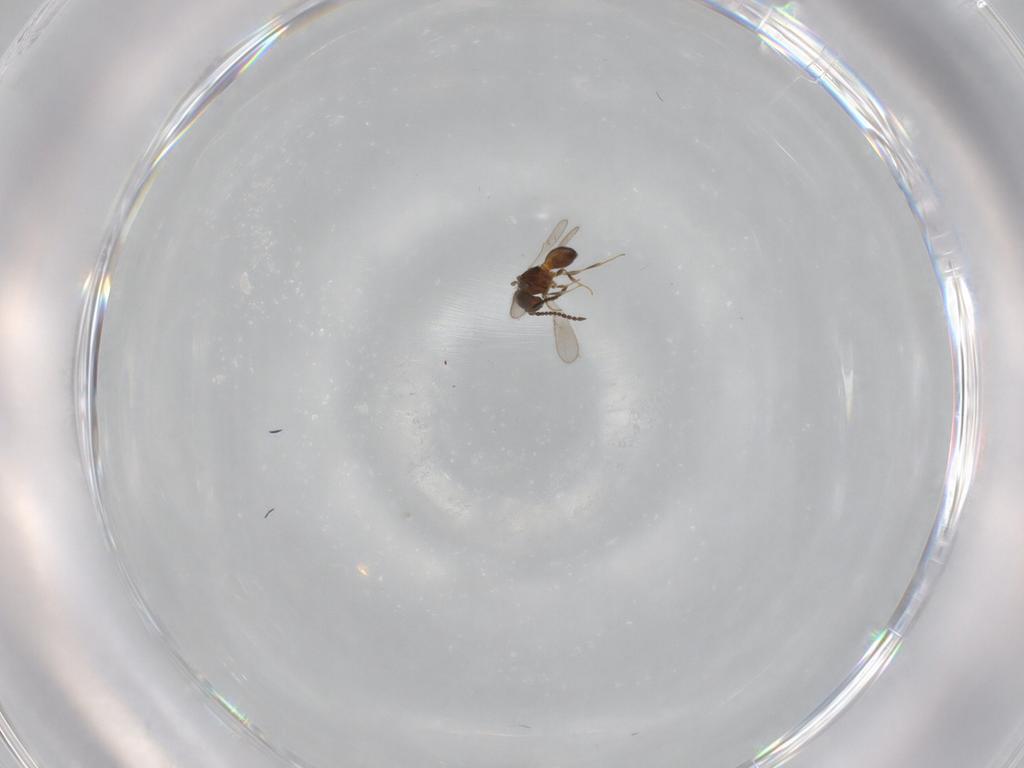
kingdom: Animalia
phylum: Arthropoda
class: Insecta
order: Hymenoptera
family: Scelionidae
